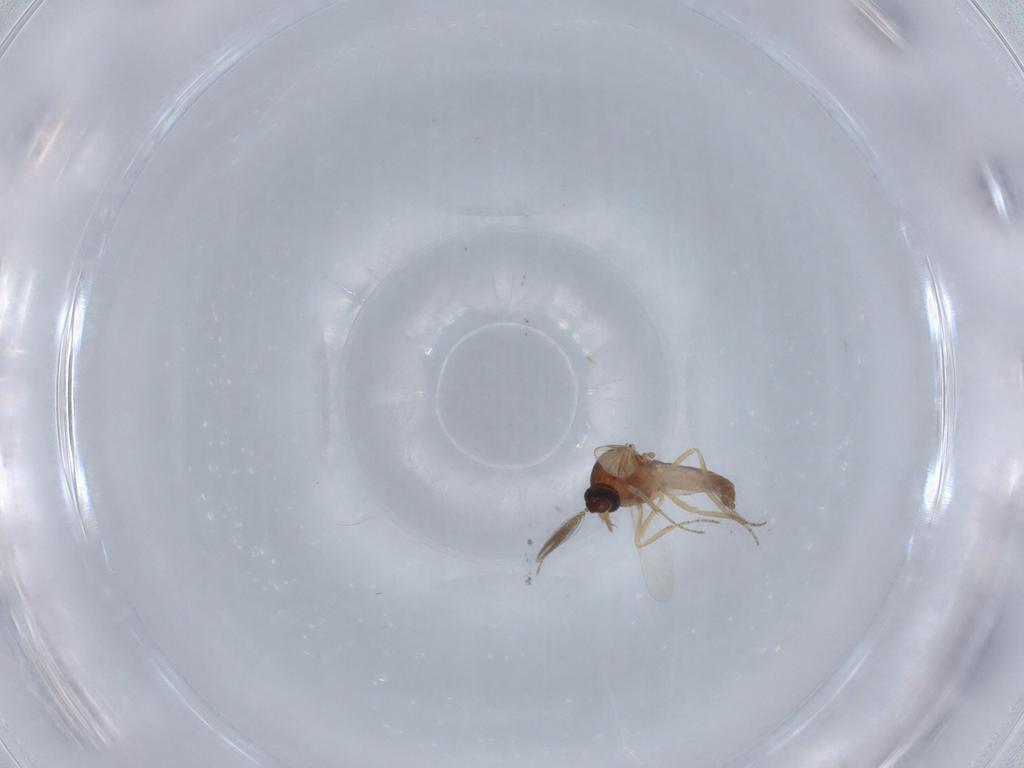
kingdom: Animalia
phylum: Arthropoda
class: Insecta
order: Diptera
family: Ceratopogonidae
